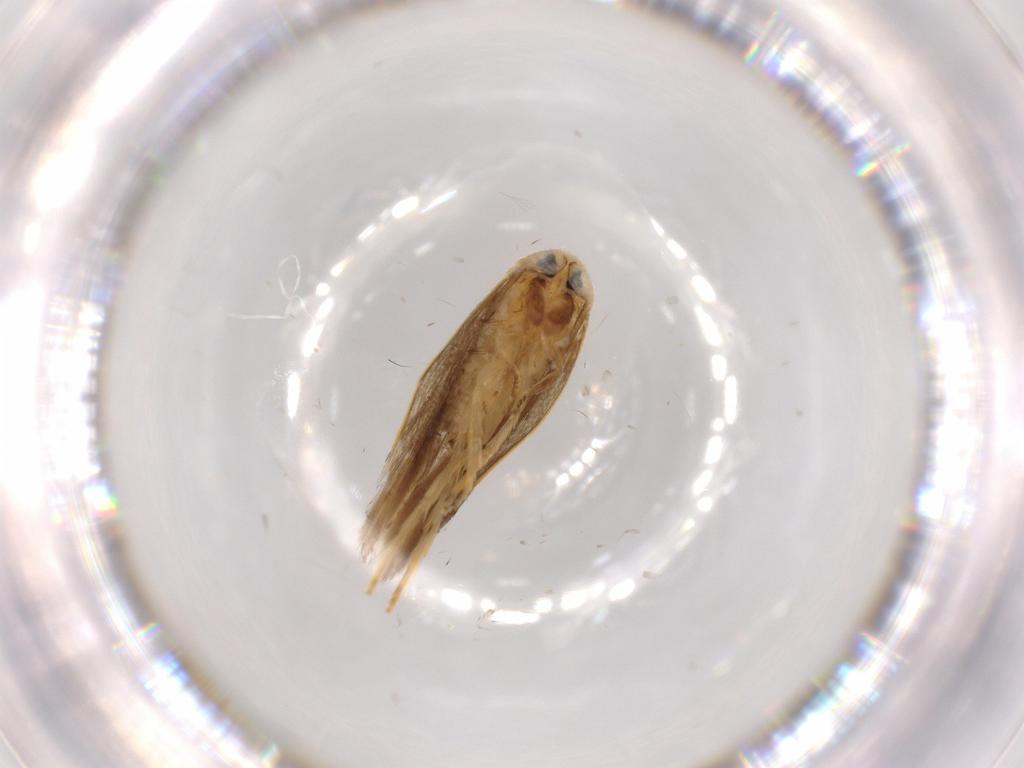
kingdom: Animalia
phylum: Arthropoda
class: Insecta
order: Lepidoptera
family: Opostegidae
